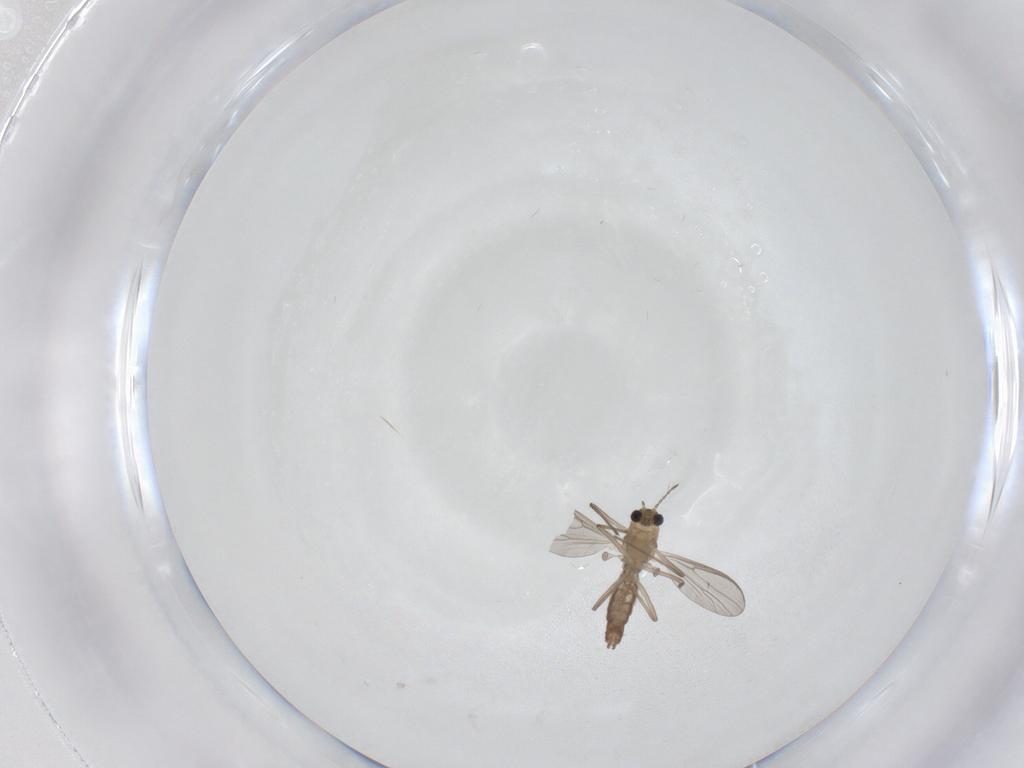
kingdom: Animalia
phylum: Arthropoda
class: Insecta
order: Diptera
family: Chironomidae
